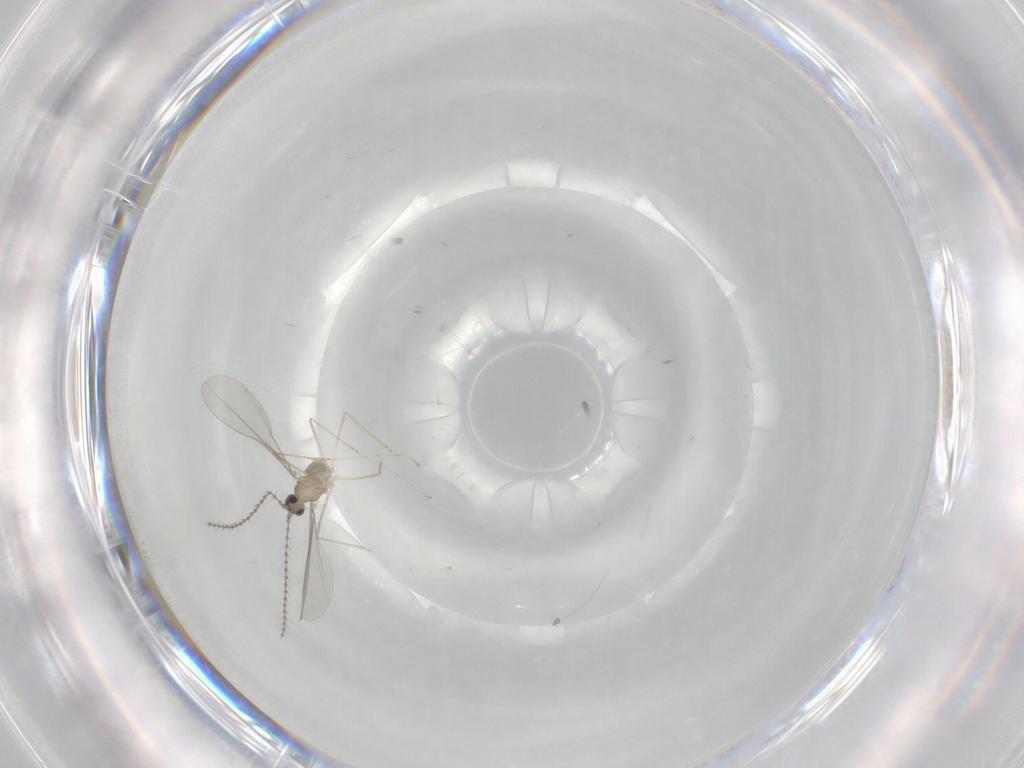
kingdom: Animalia
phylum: Arthropoda
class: Insecta
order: Diptera
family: Cecidomyiidae
